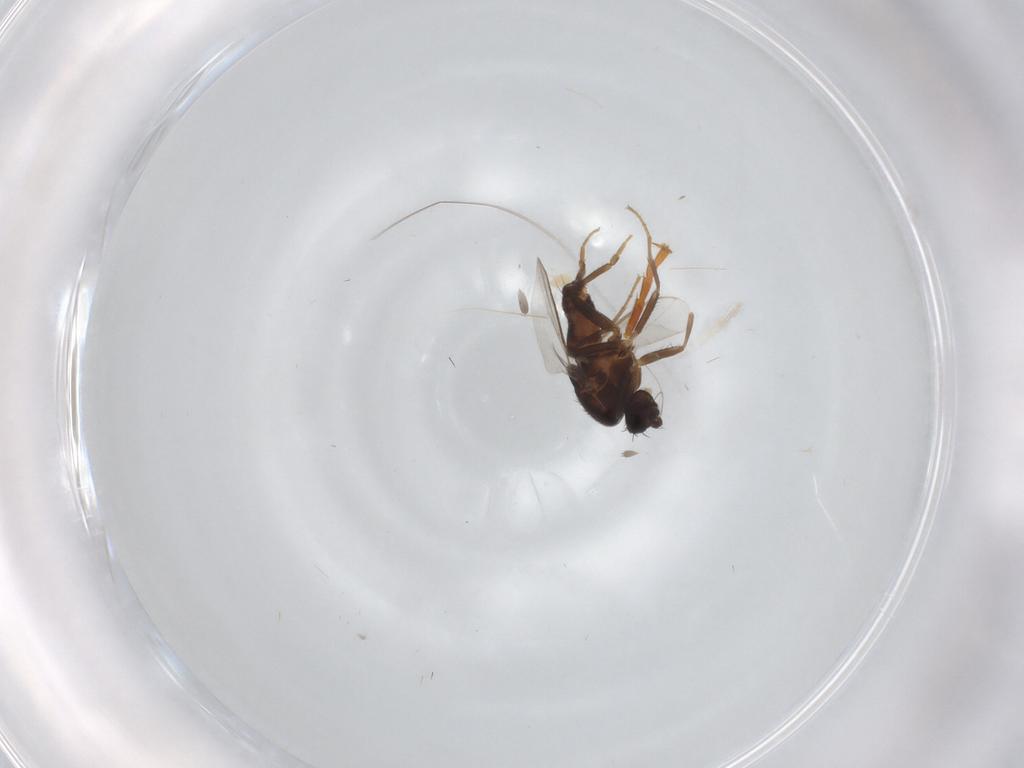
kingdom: Animalia
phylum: Arthropoda
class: Insecta
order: Diptera
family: Sphaeroceridae
